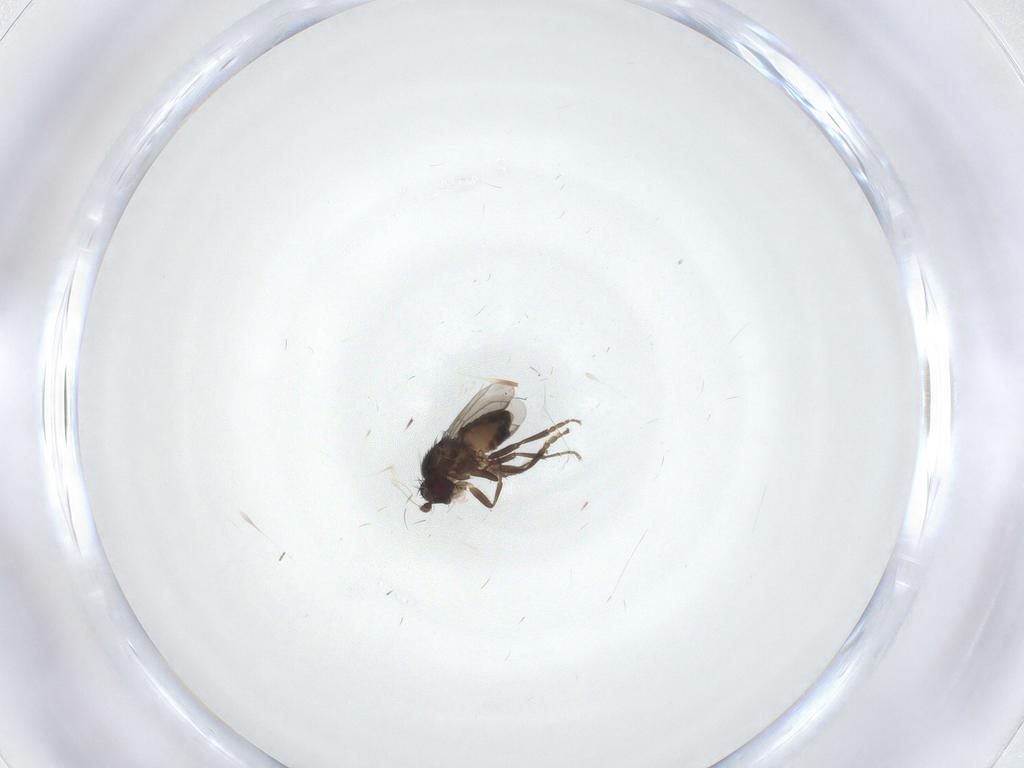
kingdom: Animalia
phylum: Arthropoda
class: Insecta
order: Diptera
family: Sphaeroceridae
